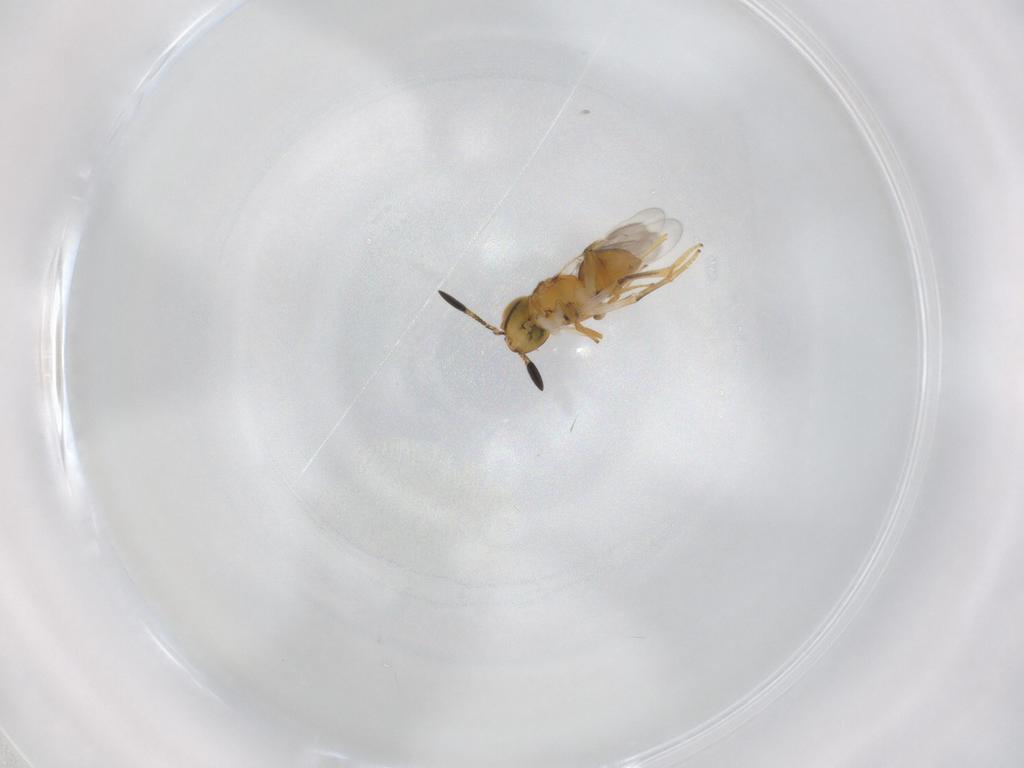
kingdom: Animalia
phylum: Arthropoda
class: Insecta
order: Hymenoptera
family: Encyrtidae
